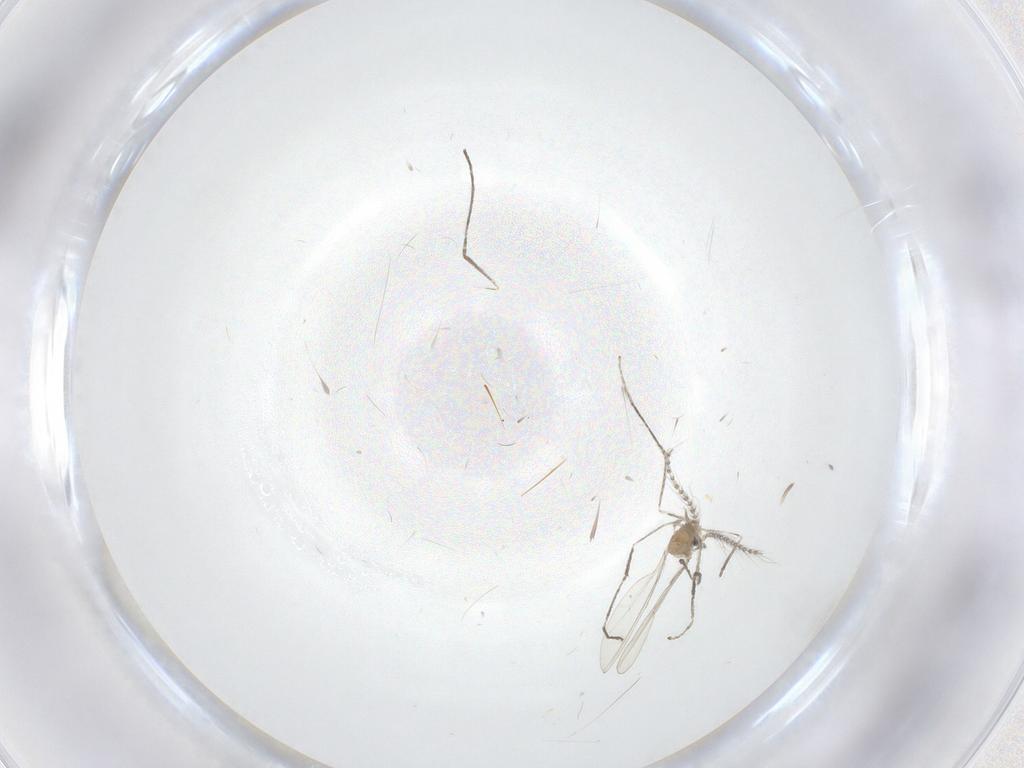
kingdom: Animalia
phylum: Arthropoda
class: Insecta
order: Diptera
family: Cecidomyiidae
